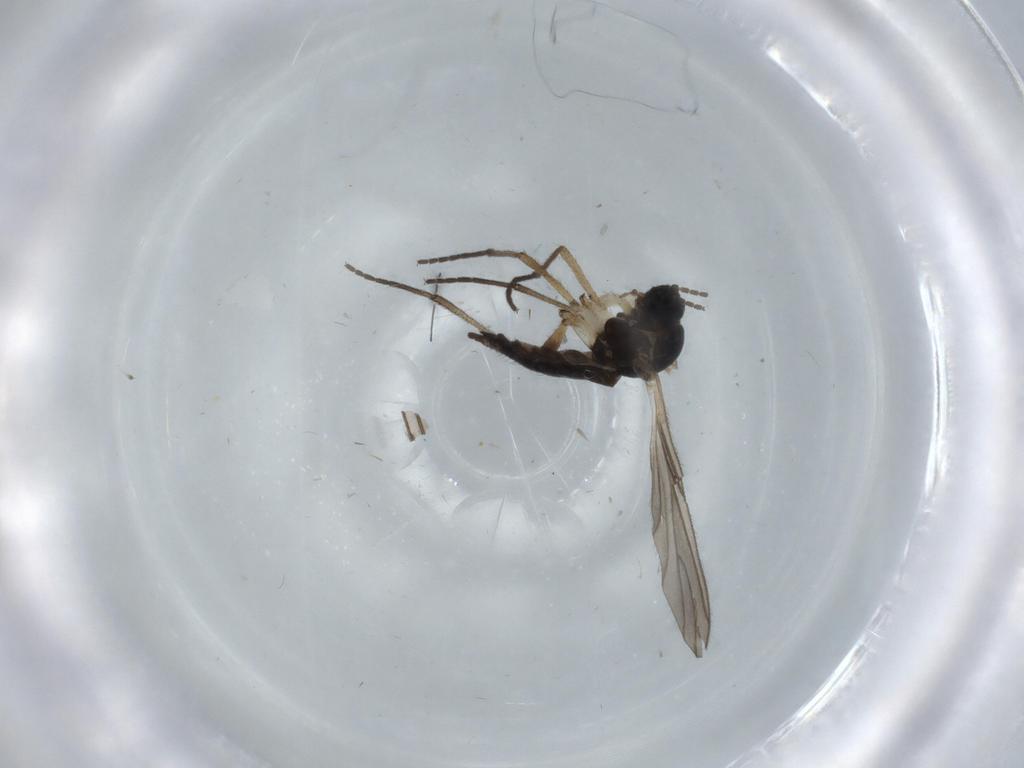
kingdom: Animalia
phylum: Arthropoda
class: Insecta
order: Diptera
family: Sciaridae
